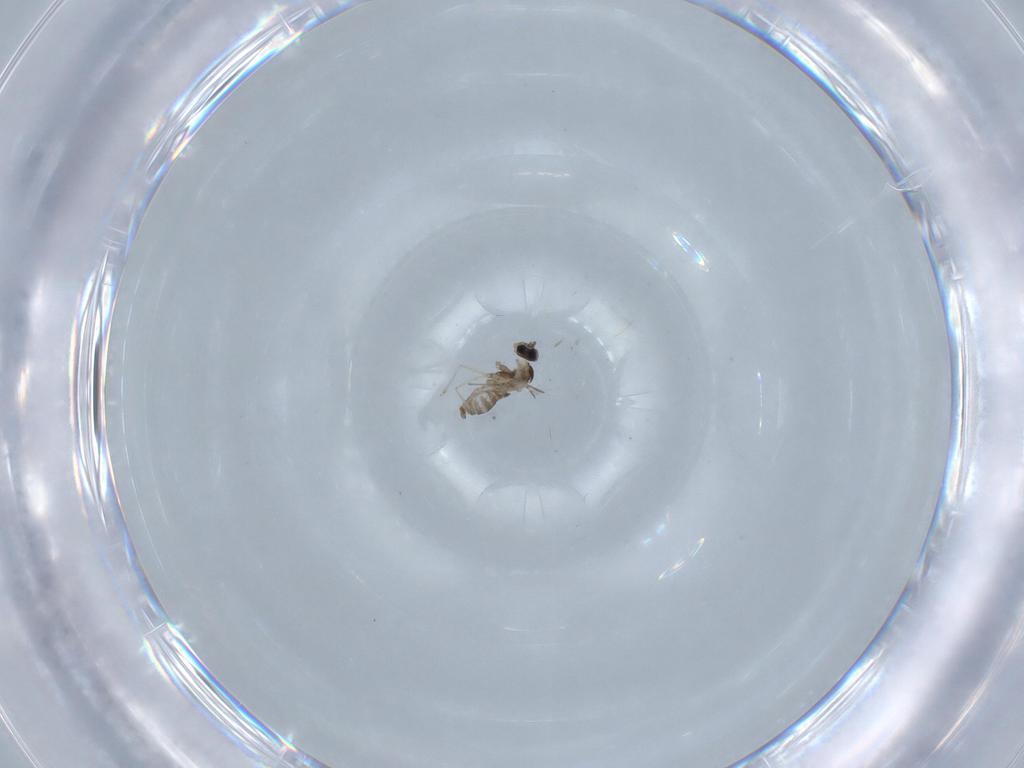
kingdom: Animalia
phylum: Arthropoda
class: Insecta
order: Diptera
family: Cecidomyiidae
